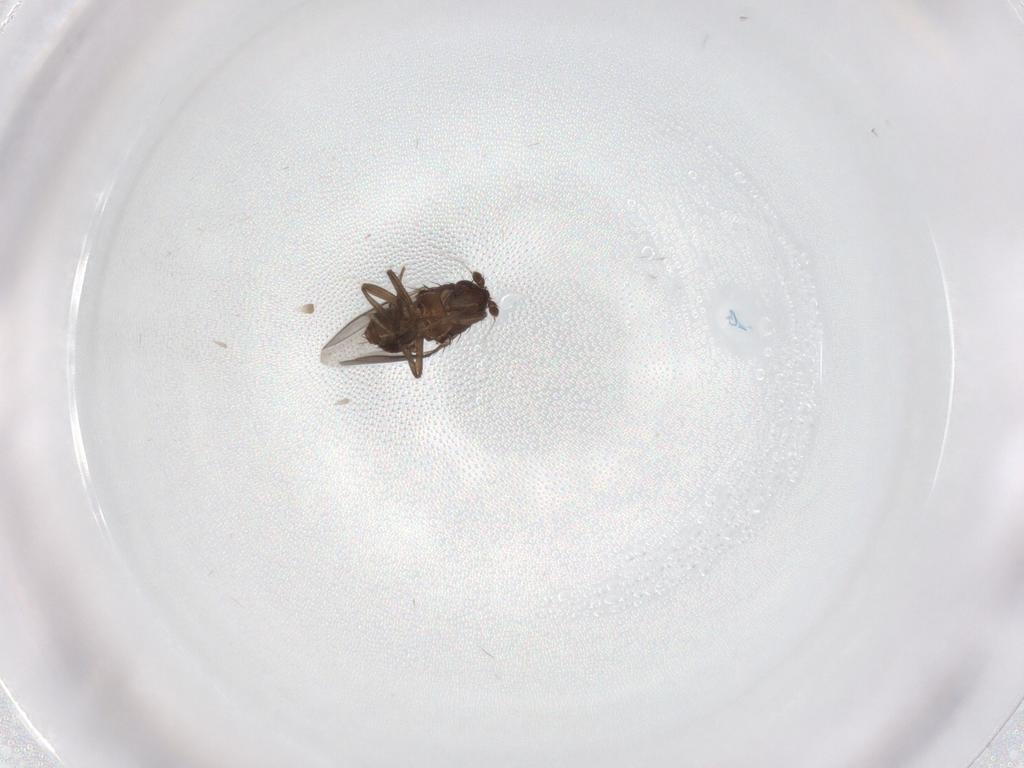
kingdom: Animalia
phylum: Arthropoda
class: Insecta
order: Diptera
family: Sphaeroceridae
